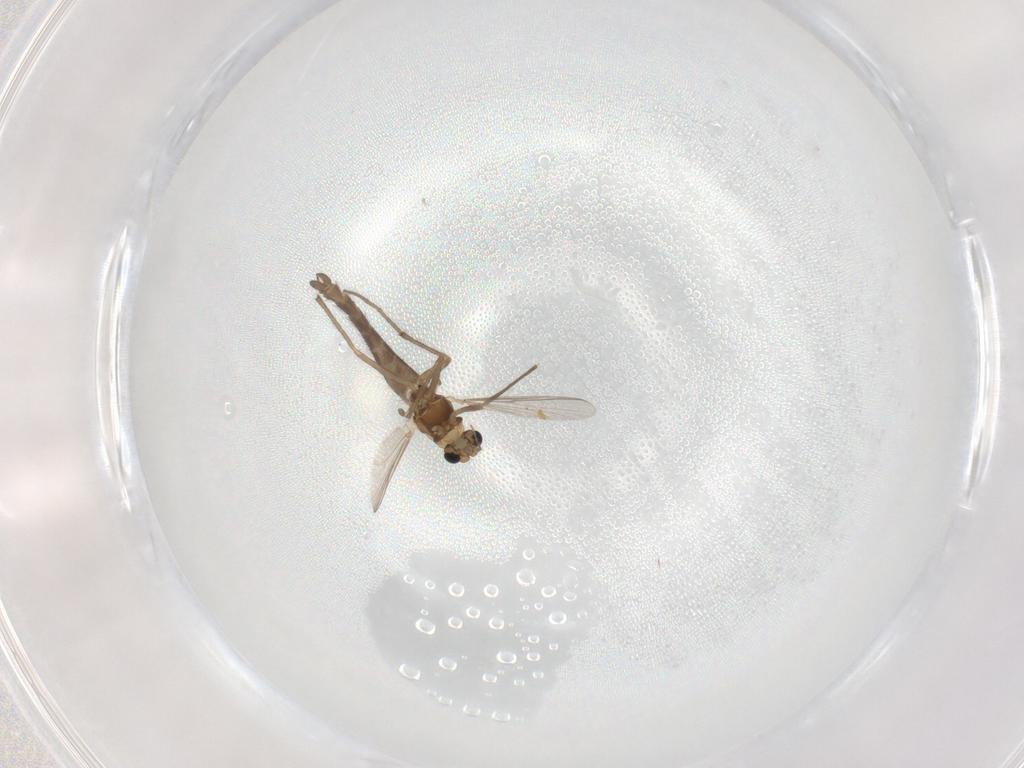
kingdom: Animalia
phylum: Arthropoda
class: Insecta
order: Diptera
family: Chironomidae
